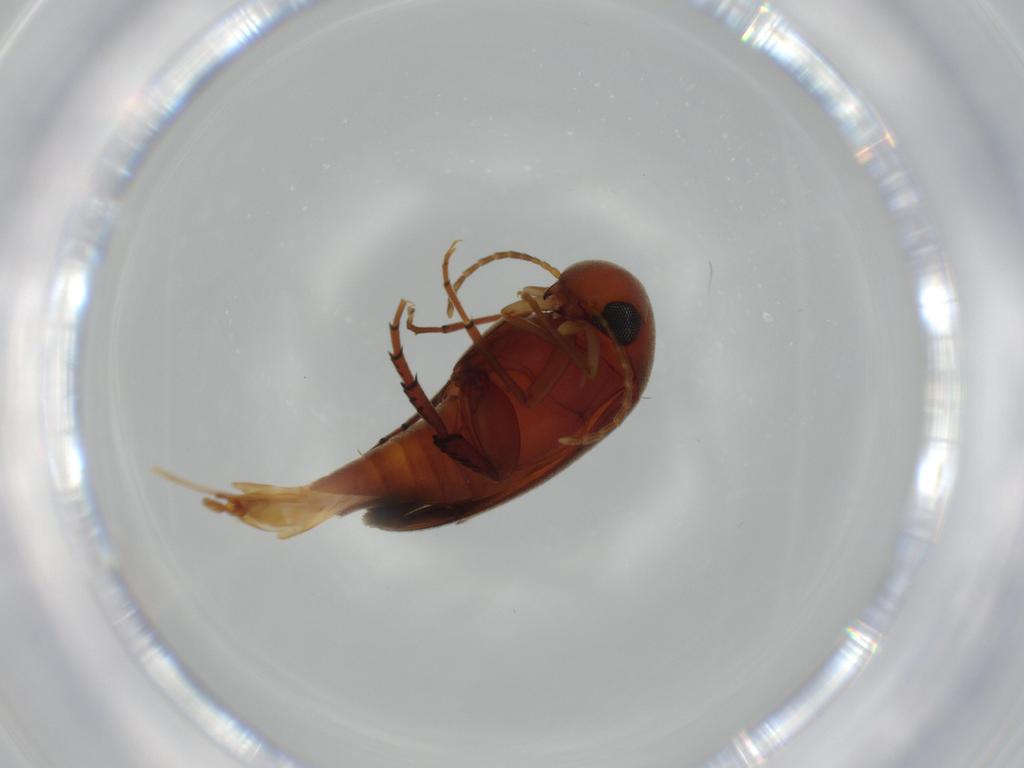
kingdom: Animalia
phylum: Arthropoda
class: Insecta
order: Coleoptera
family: Mordellidae
